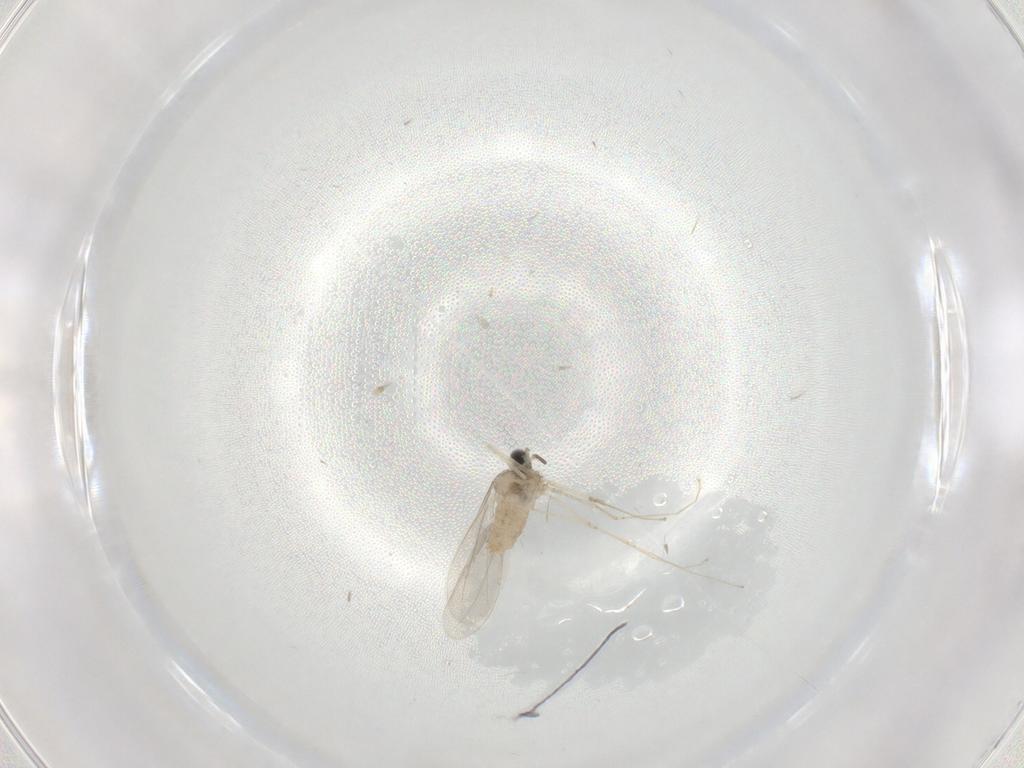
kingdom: Animalia
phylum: Arthropoda
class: Insecta
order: Diptera
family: Cecidomyiidae
